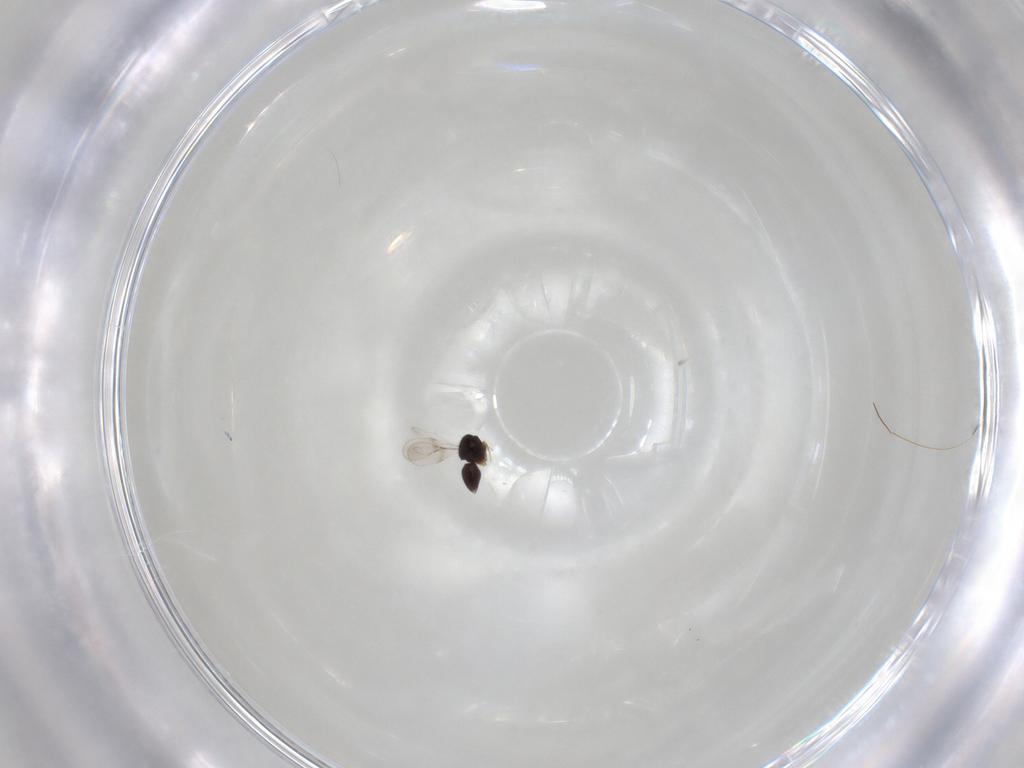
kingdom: Animalia
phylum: Arthropoda
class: Insecta
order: Hymenoptera
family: Ceraphronidae
